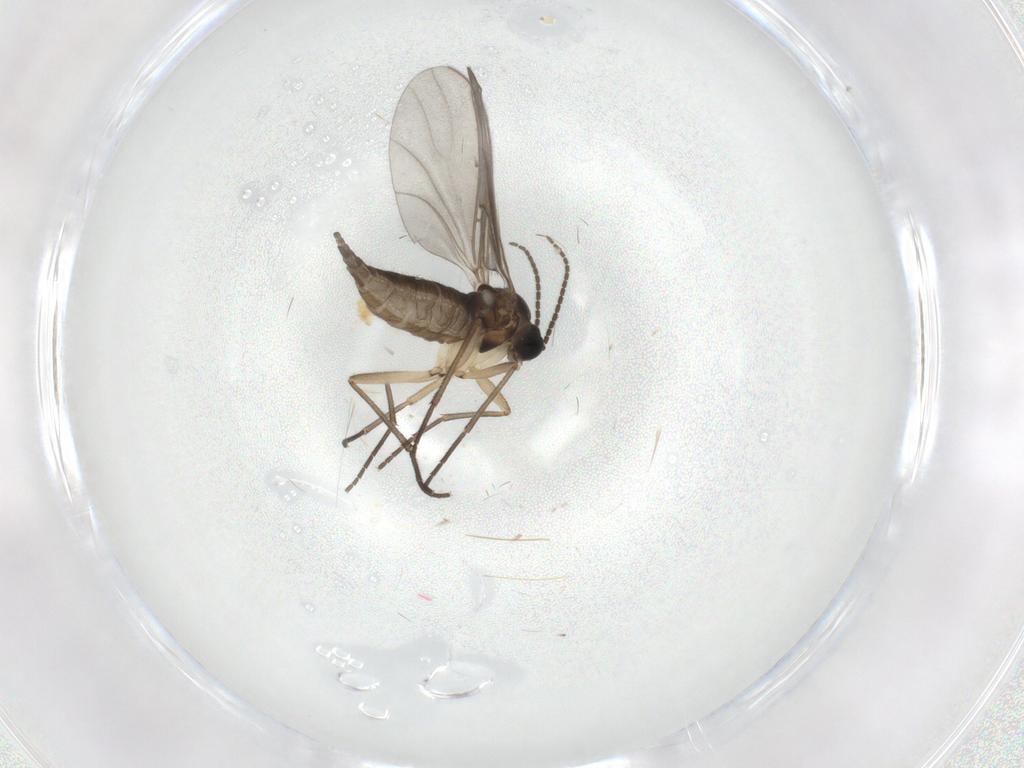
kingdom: Animalia
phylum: Arthropoda
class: Insecta
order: Diptera
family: Sciaridae
